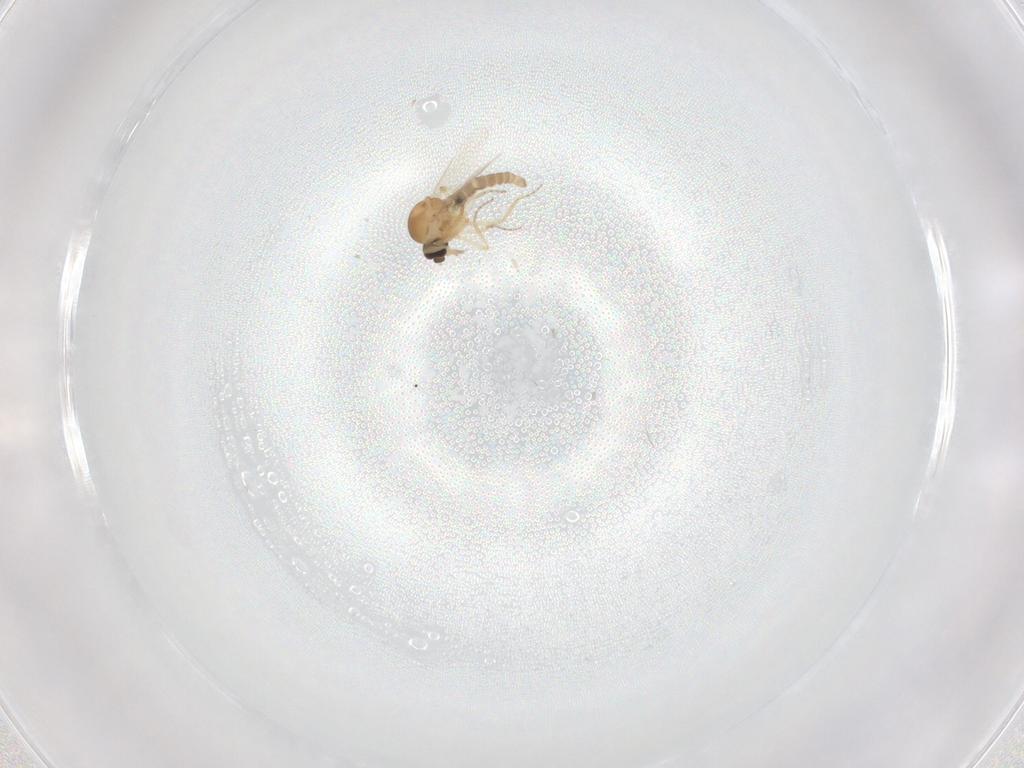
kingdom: Animalia
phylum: Arthropoda
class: Insecta
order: Diptera
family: Ceratopogonidae
